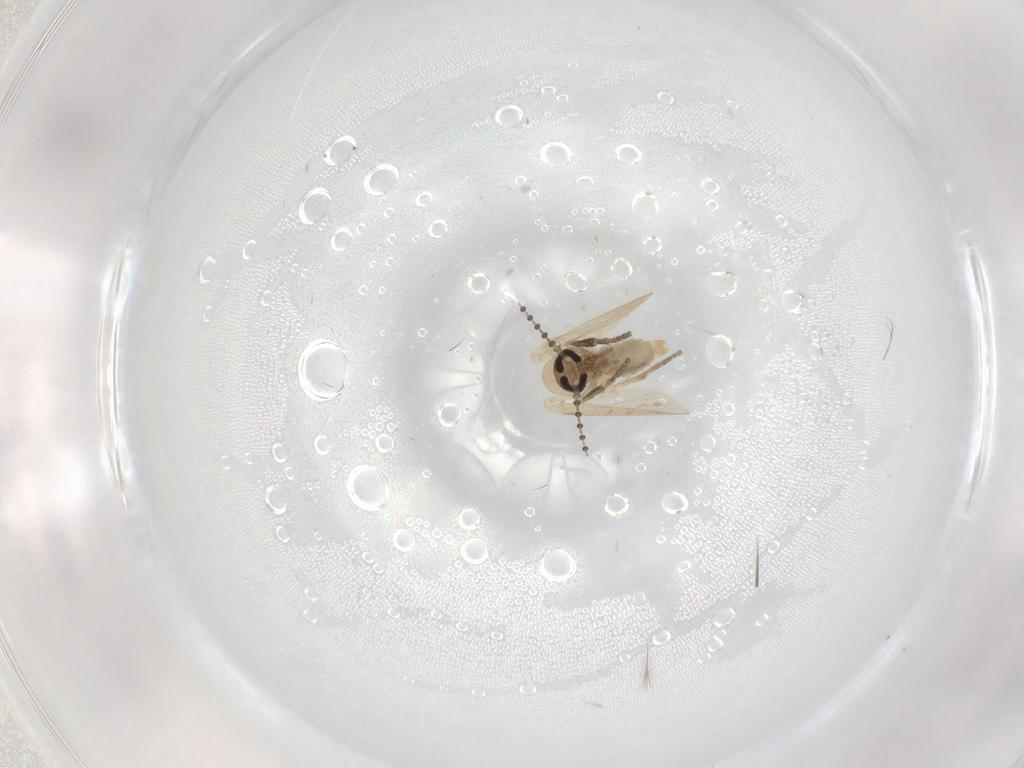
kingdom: Animalia
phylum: Arthropoda
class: Insecta
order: Diptera
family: Psychodidae
